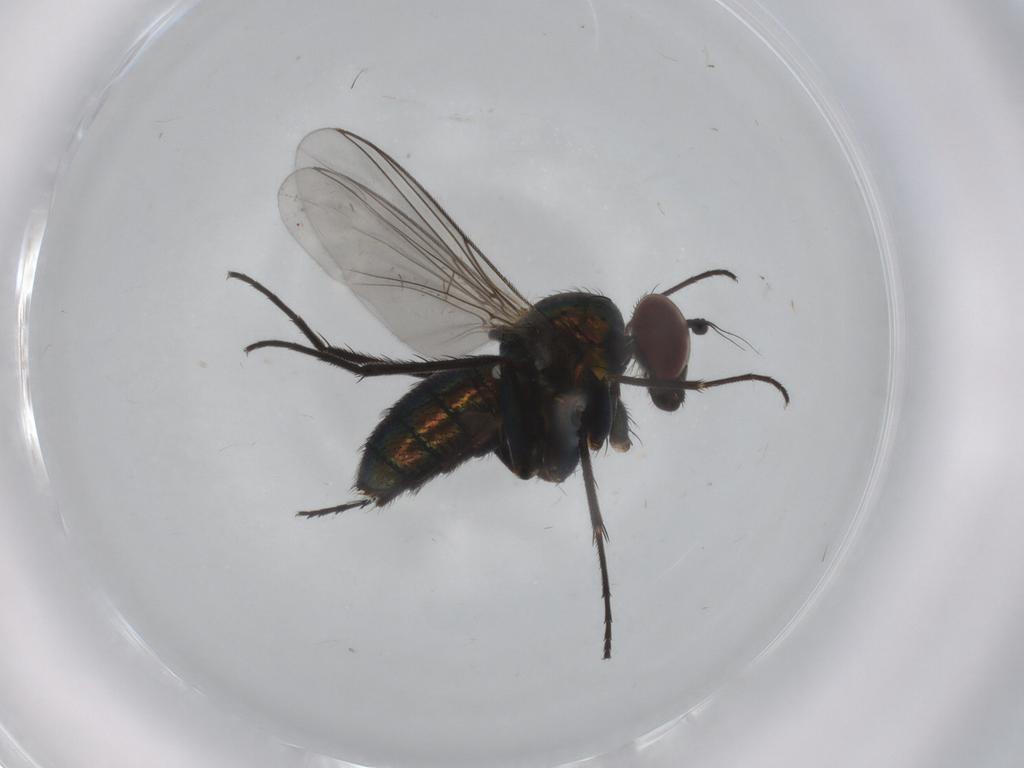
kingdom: Animalia
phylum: Arthropoda
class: Insecta
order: Diptera
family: Dolichopodidae
